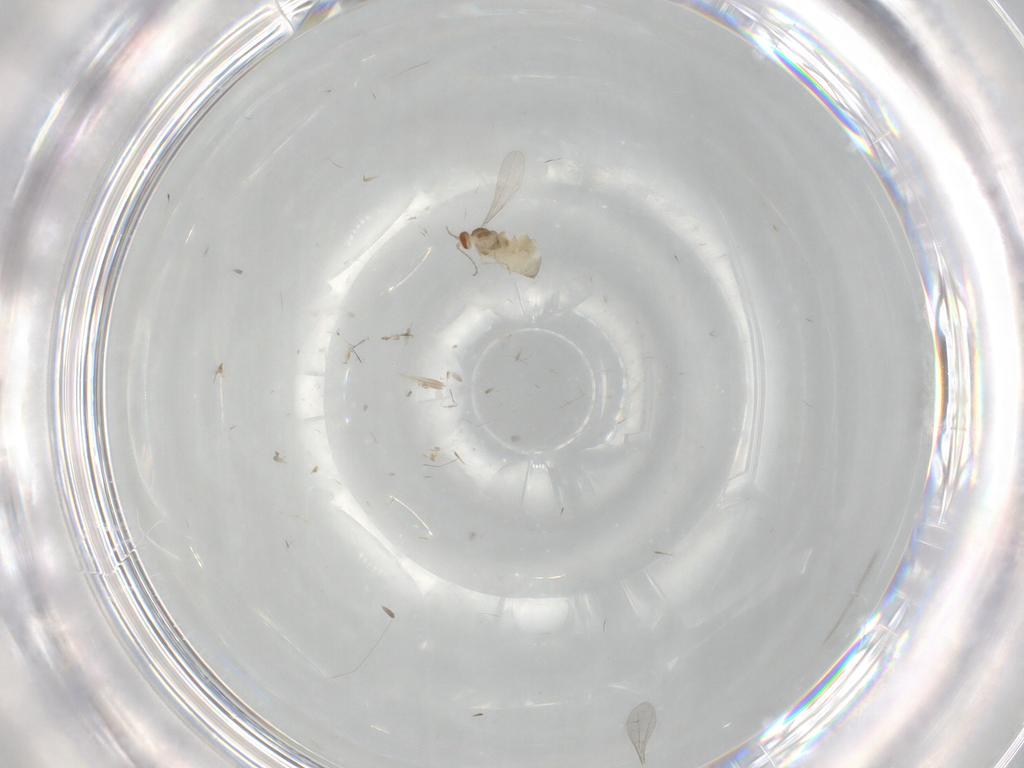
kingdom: Animalia
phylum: Arthropoda
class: Insecta
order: Diptera
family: Cecidomyiidae
